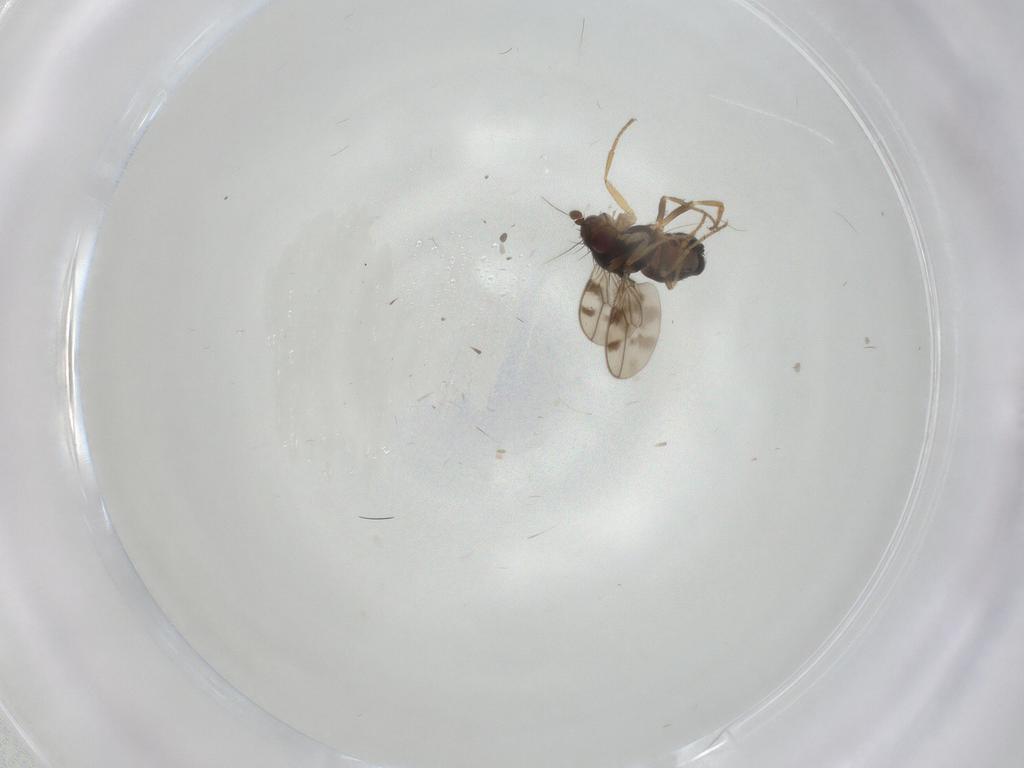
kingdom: Animalia
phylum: Arthropoda
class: Insecta
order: Diptera
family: Sphaeroceridae
